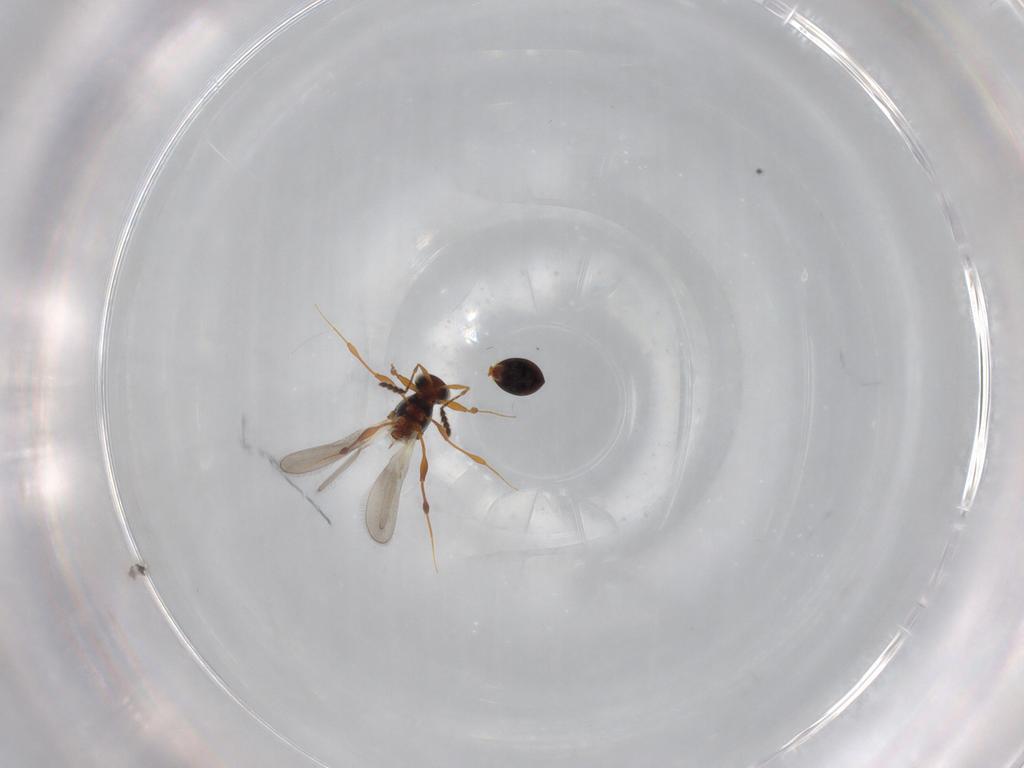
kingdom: Animalia
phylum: Arthropoda
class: Insecta
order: Hymenoptera
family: Platygastridae
